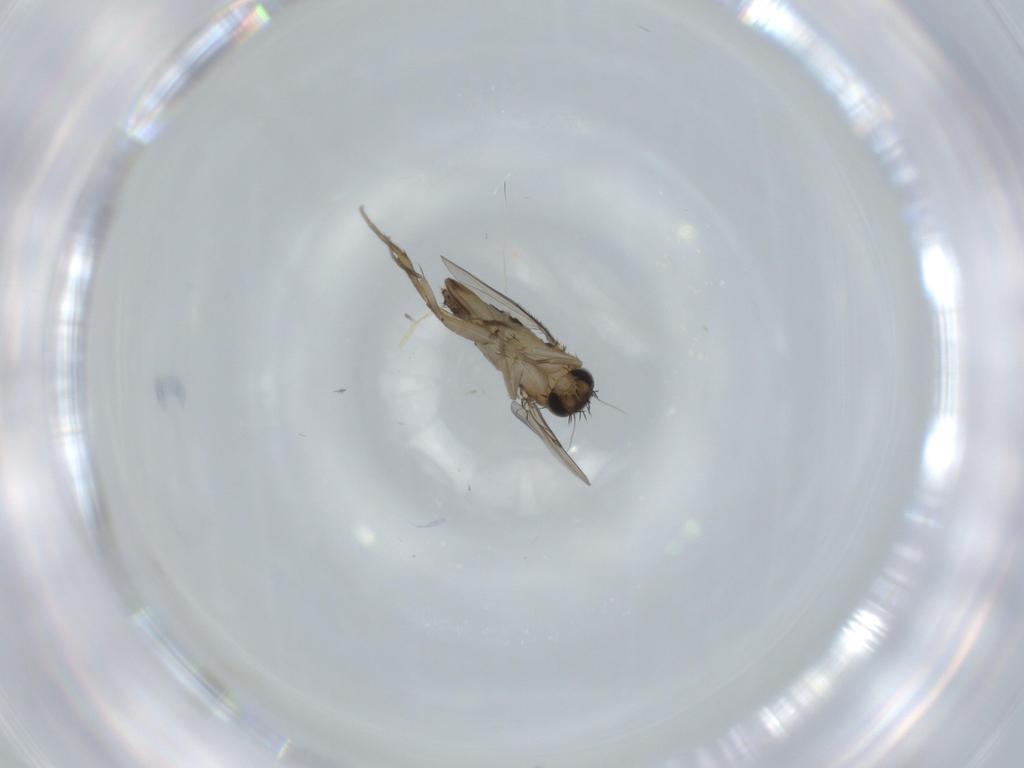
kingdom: Animalia
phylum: Arthropoda
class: Insecta
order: Diptera
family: Phoridae
